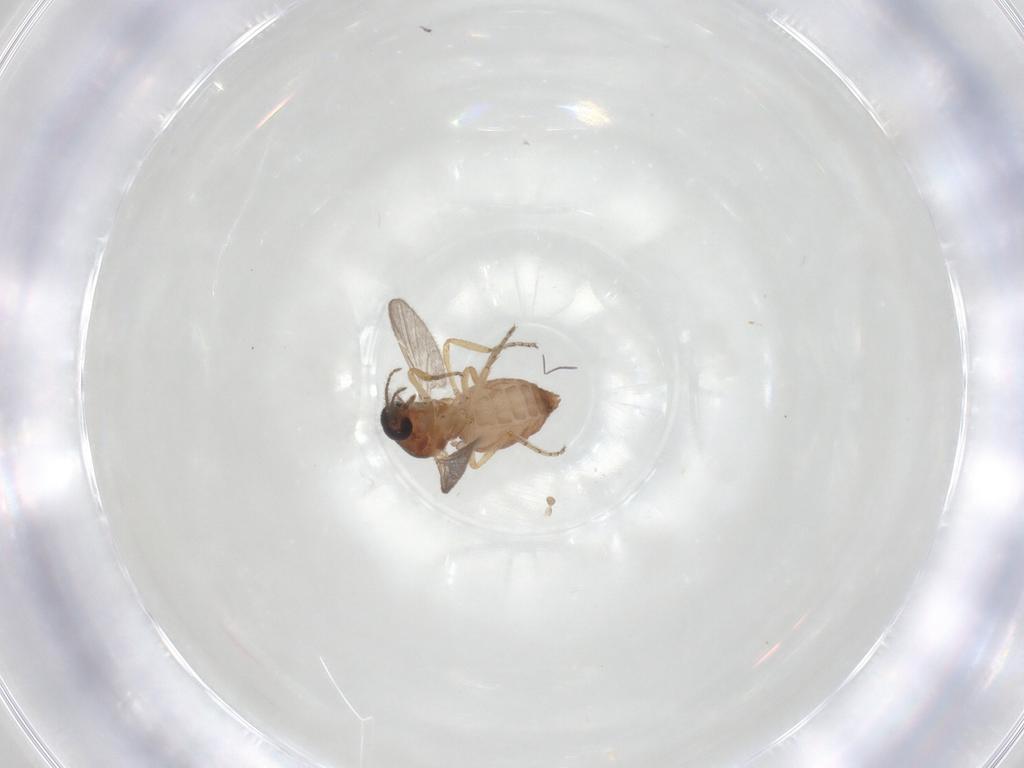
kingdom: Animalia
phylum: Arthropoda
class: Insecta
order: Diptera
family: Ceratopogonidae
